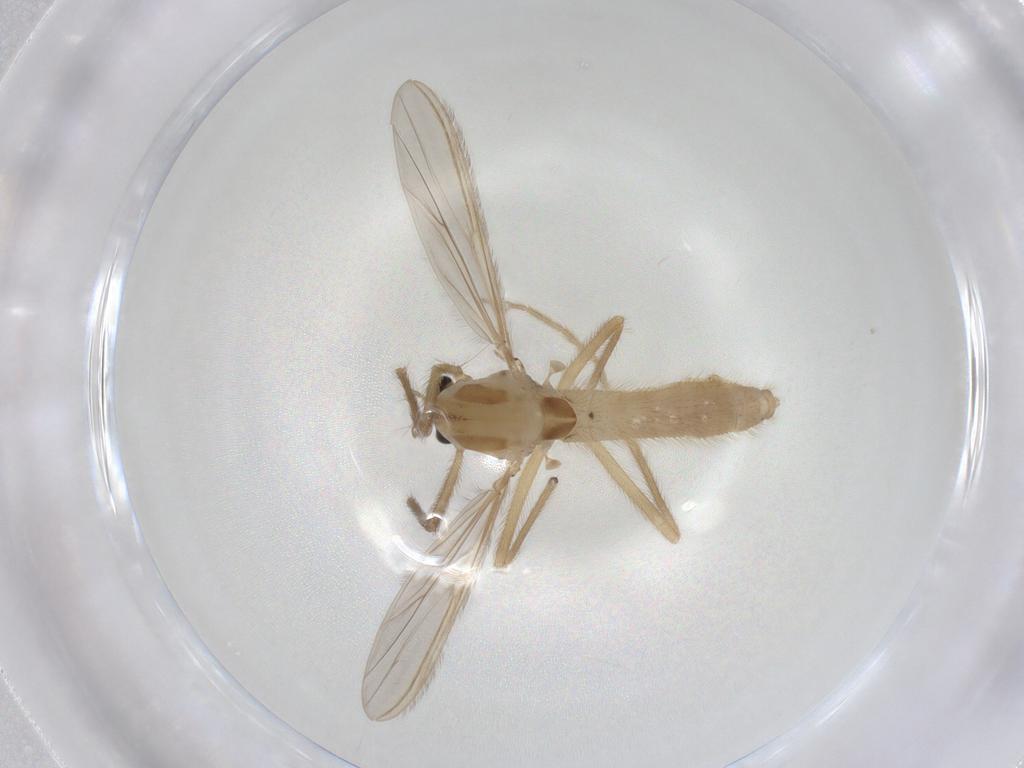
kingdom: Animalia
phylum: Arthropoda
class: Insecta
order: Diptera
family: Chironomidae
